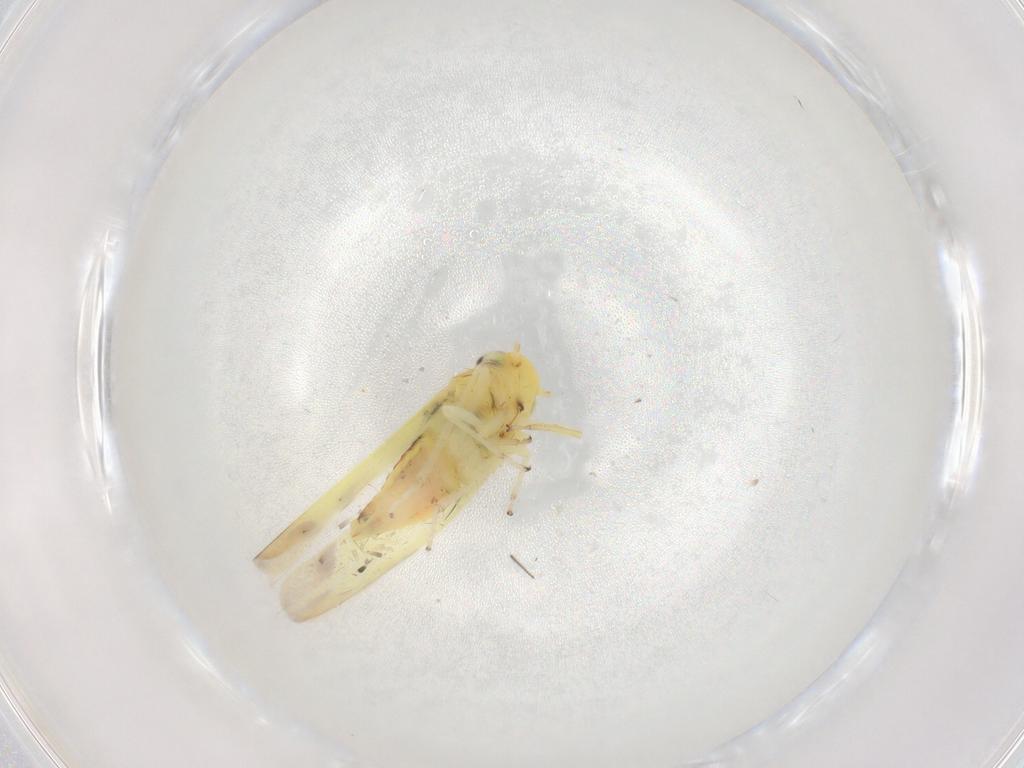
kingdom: Animalia
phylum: Arthropoda
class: Insecta
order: Hemiptera
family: Cicadellidae
